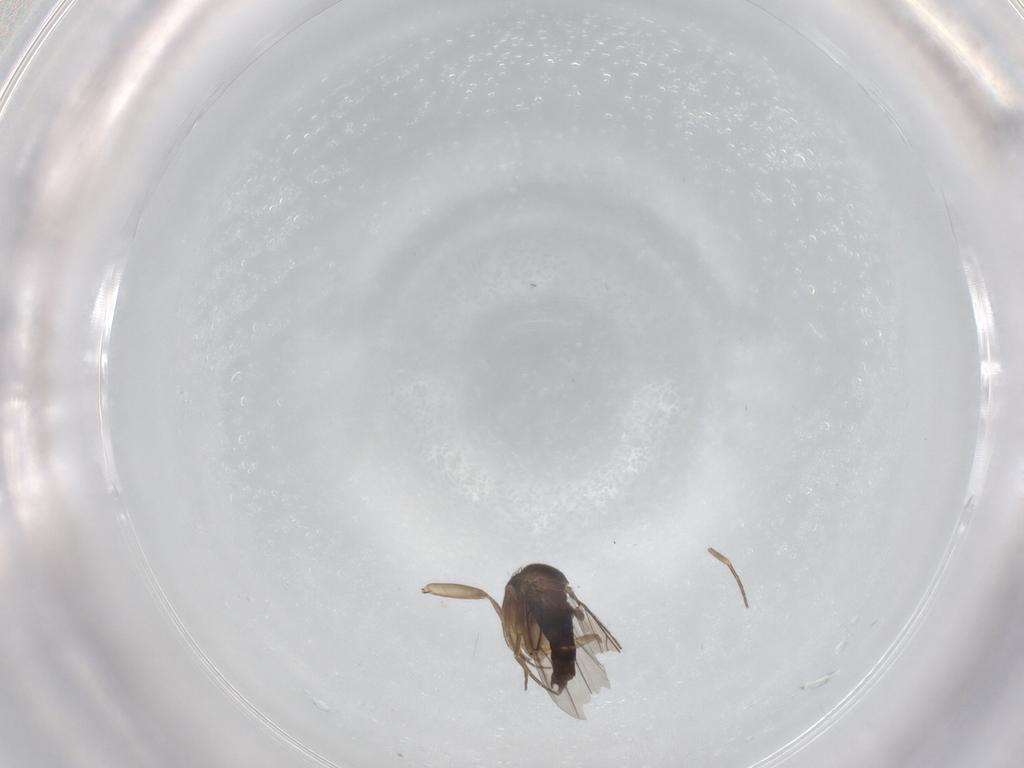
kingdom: Animalia
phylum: Arthropoda
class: Insecta
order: Diptera
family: Phoridae
